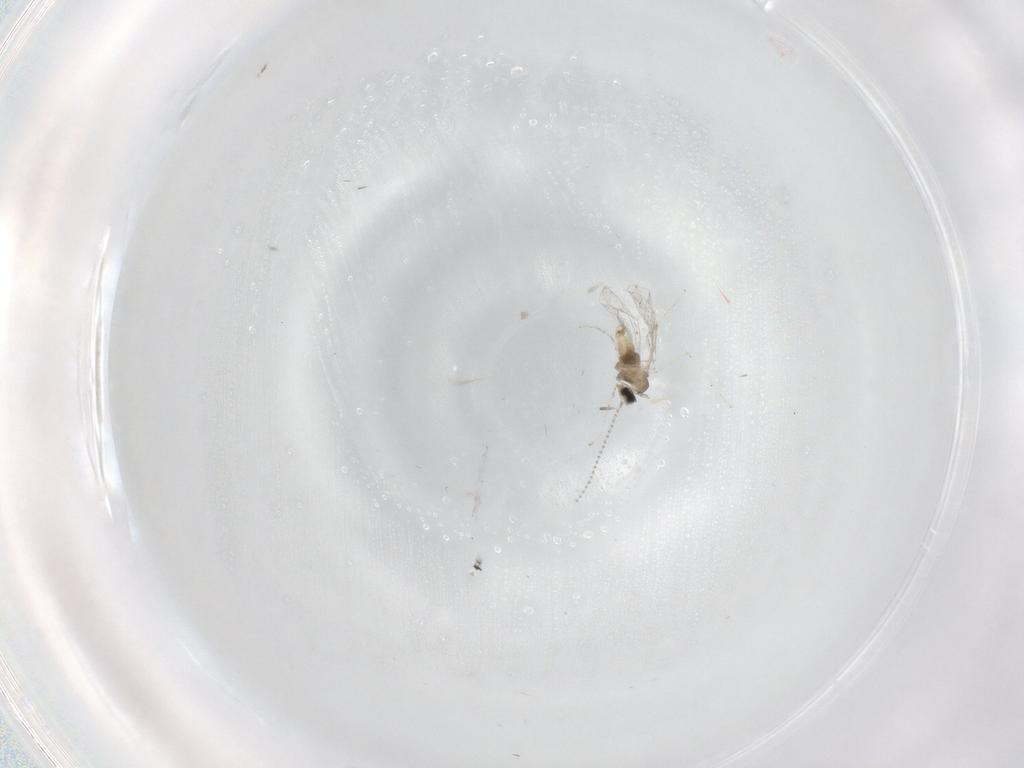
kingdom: Animalia
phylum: Arthropoda
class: Insecta
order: Diptera
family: Cecidomyiidae
